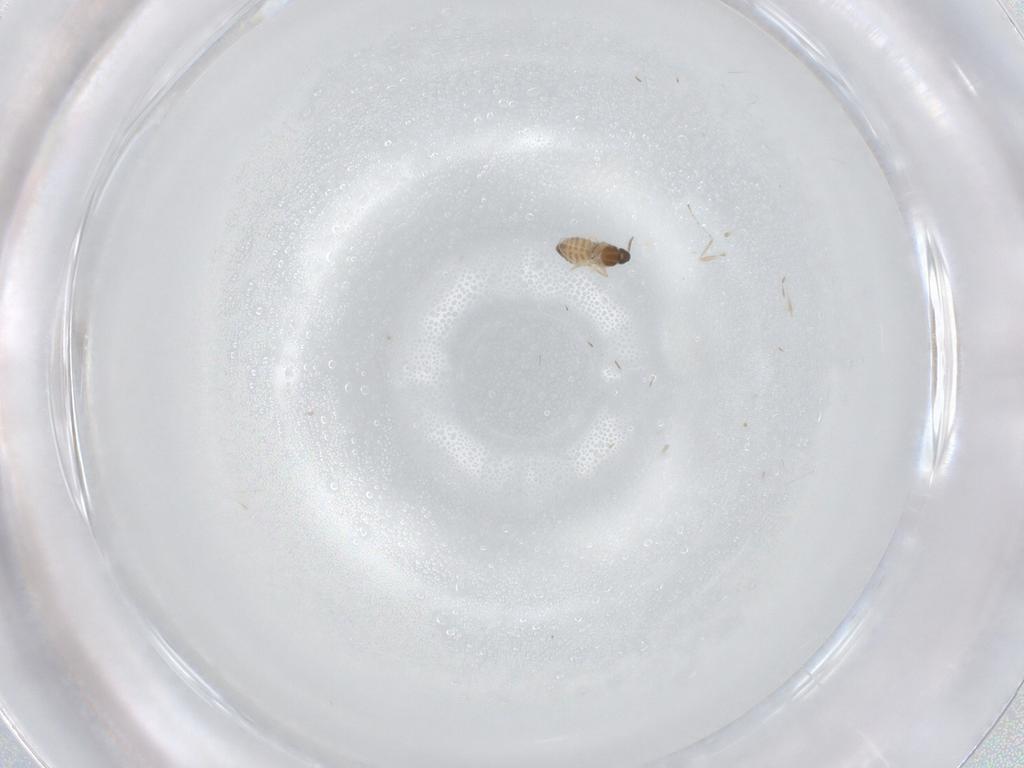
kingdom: Animalia
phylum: Arthropoda
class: Insecta
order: Diptera
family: Cecidomyiidae
